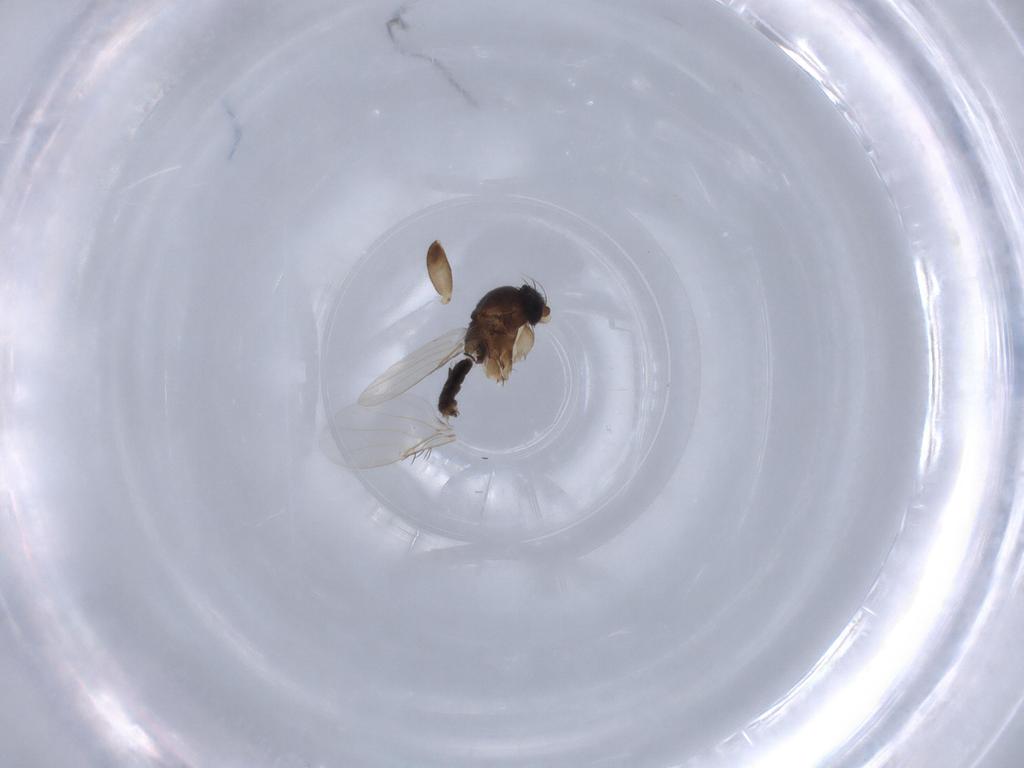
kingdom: Animalia
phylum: Arthropoda
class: Insecta
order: Diptera
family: Phoridae
